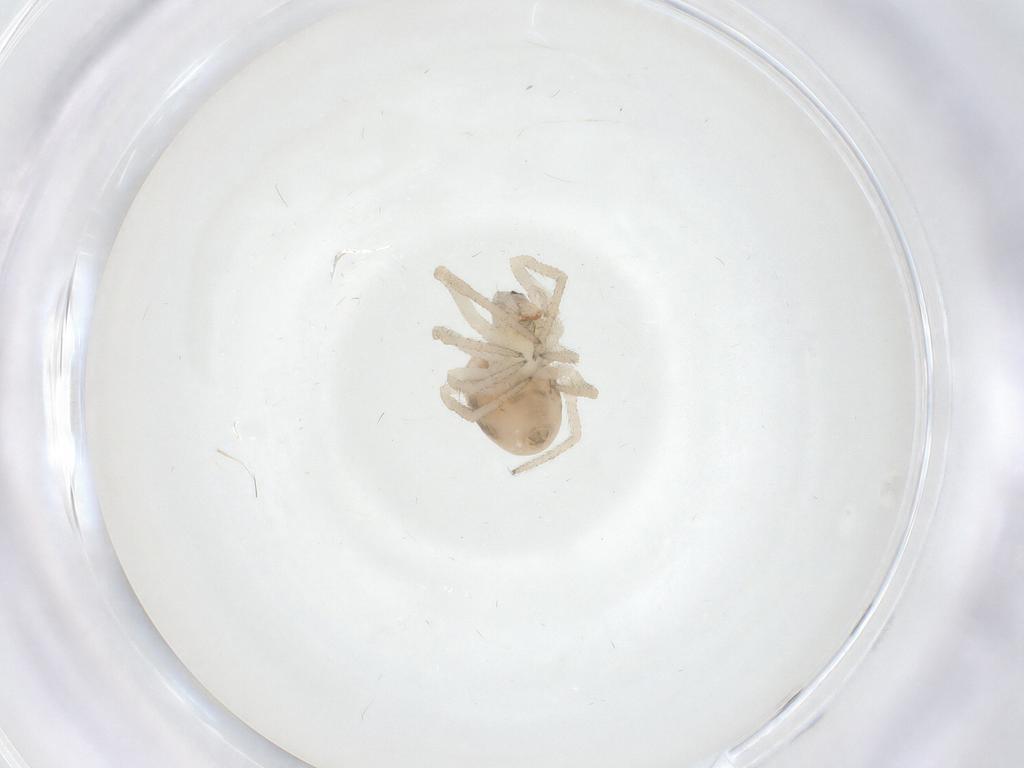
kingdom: Animalia
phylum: Arthropoda
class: Arachnida
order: Araneae
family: Theridiidae
